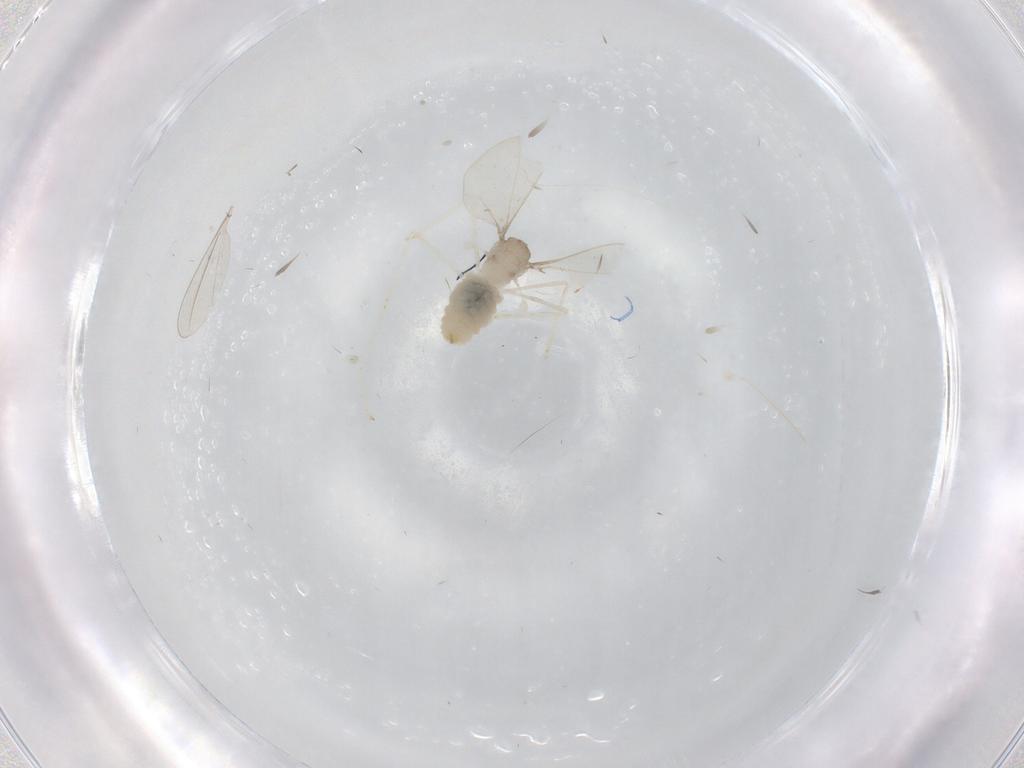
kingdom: Animalia
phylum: Arthropoda
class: Insecta
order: Diptera
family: Cecidomyiidae
